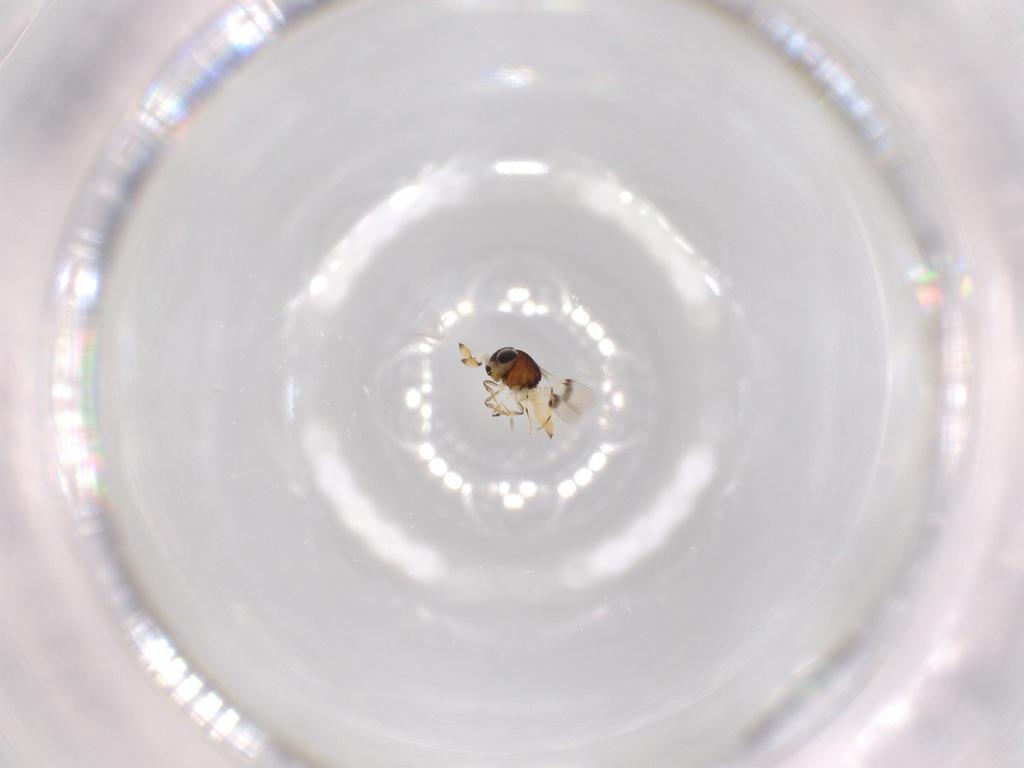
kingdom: Animalia
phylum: Arthropoda
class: Insecta
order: Hymenoptera
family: Scelionidae
